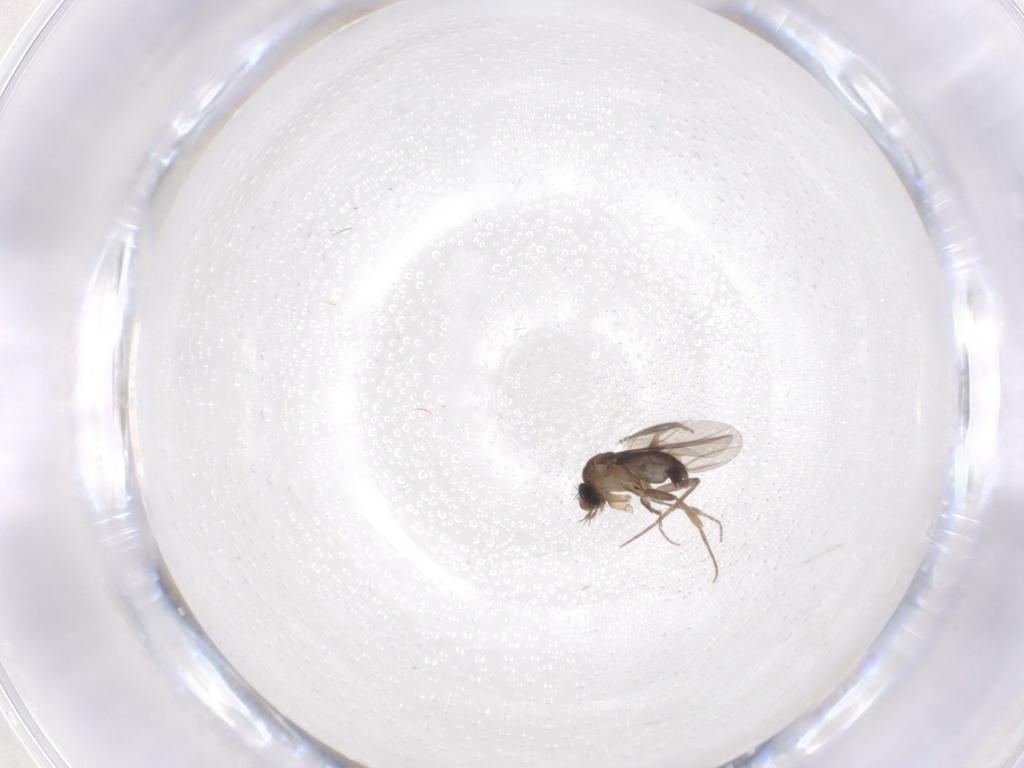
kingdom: Animalia
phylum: Arthropoda
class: Insecta
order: Diptera
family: Phoridae
